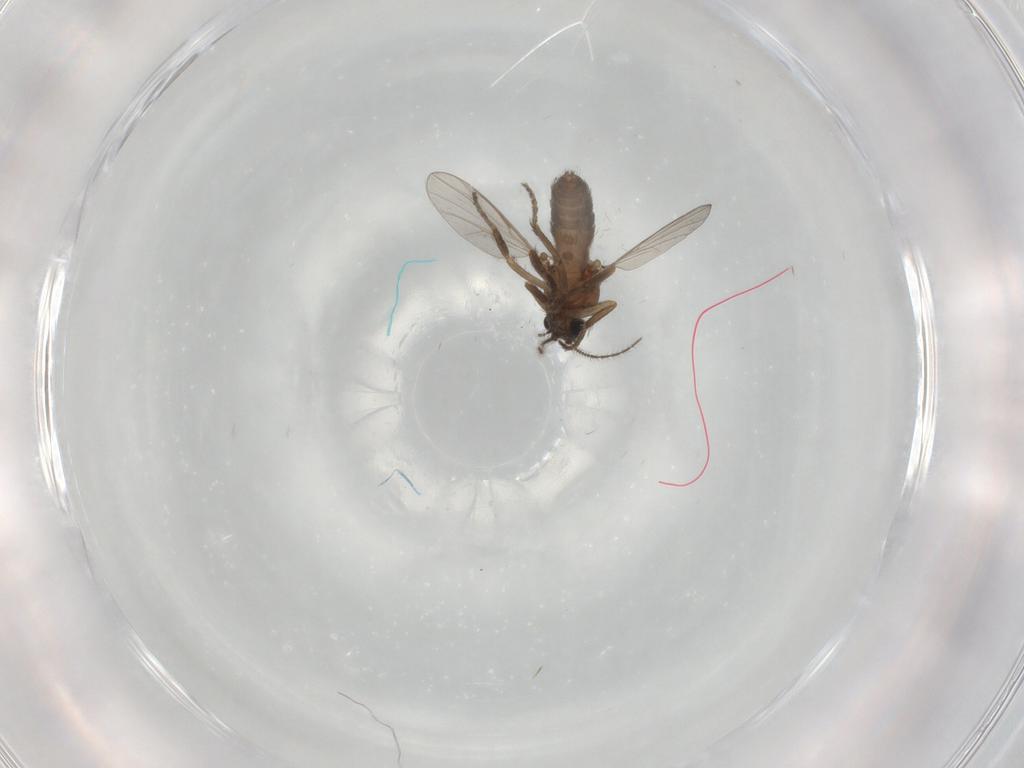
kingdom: Animalia
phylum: Arthropoda
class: Insecta
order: Diptera
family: Ceratopogonidae
